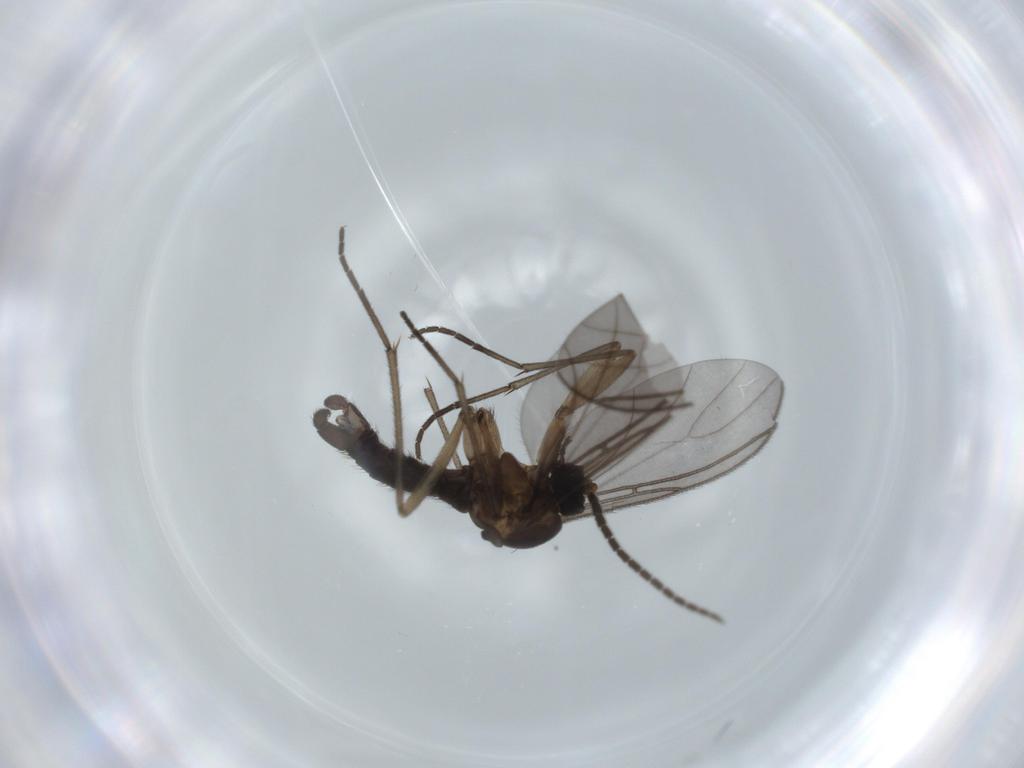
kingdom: Animalia
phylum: Arthropoda
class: Insecta
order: Diptera
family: Sciaridae
